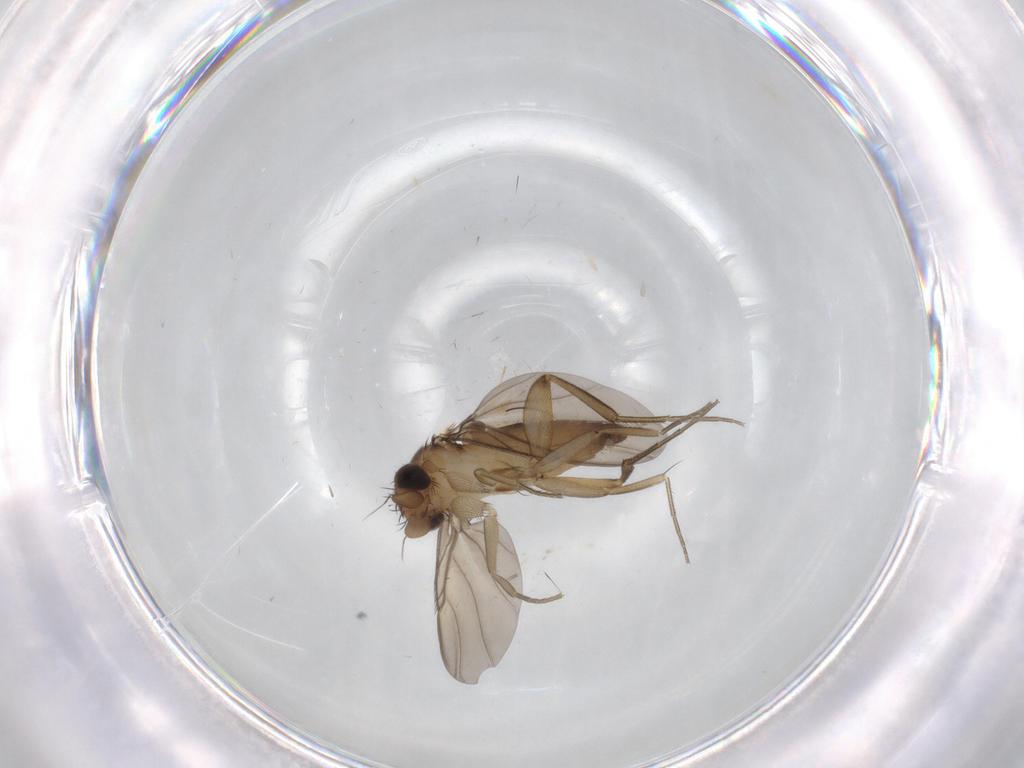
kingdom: Animalia
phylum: Arthropoda
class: Insecta
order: Diptera
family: Phoridae
